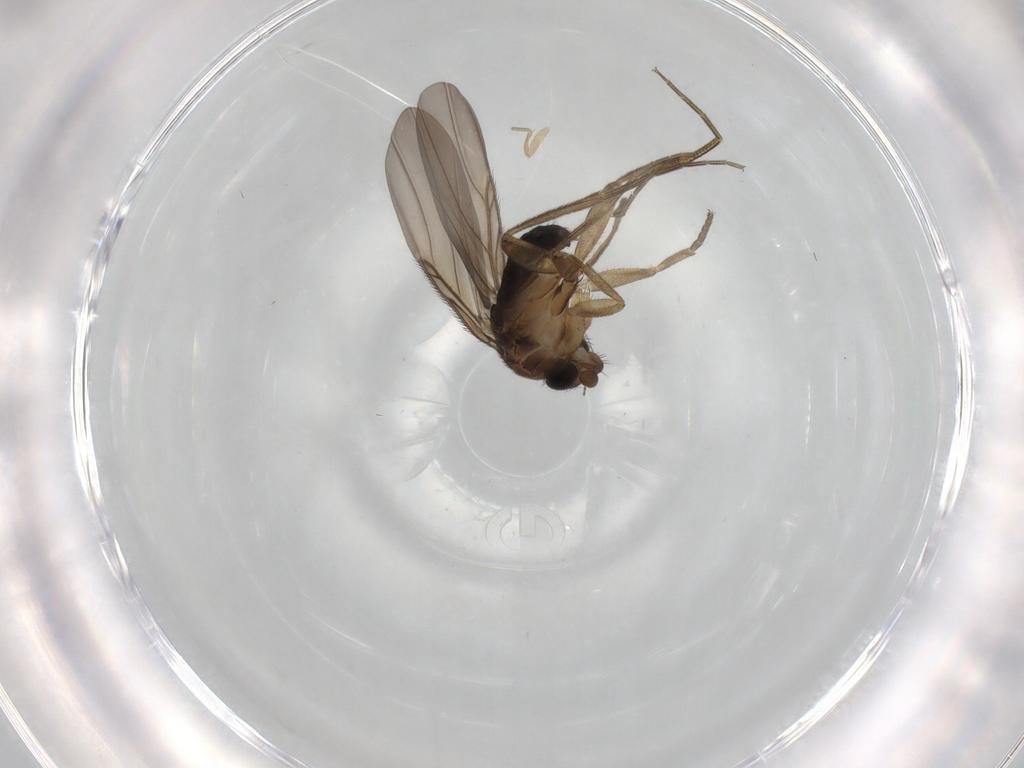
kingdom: Animalia
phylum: Arthropoda
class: Insecta
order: Diptera
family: Phoridae
